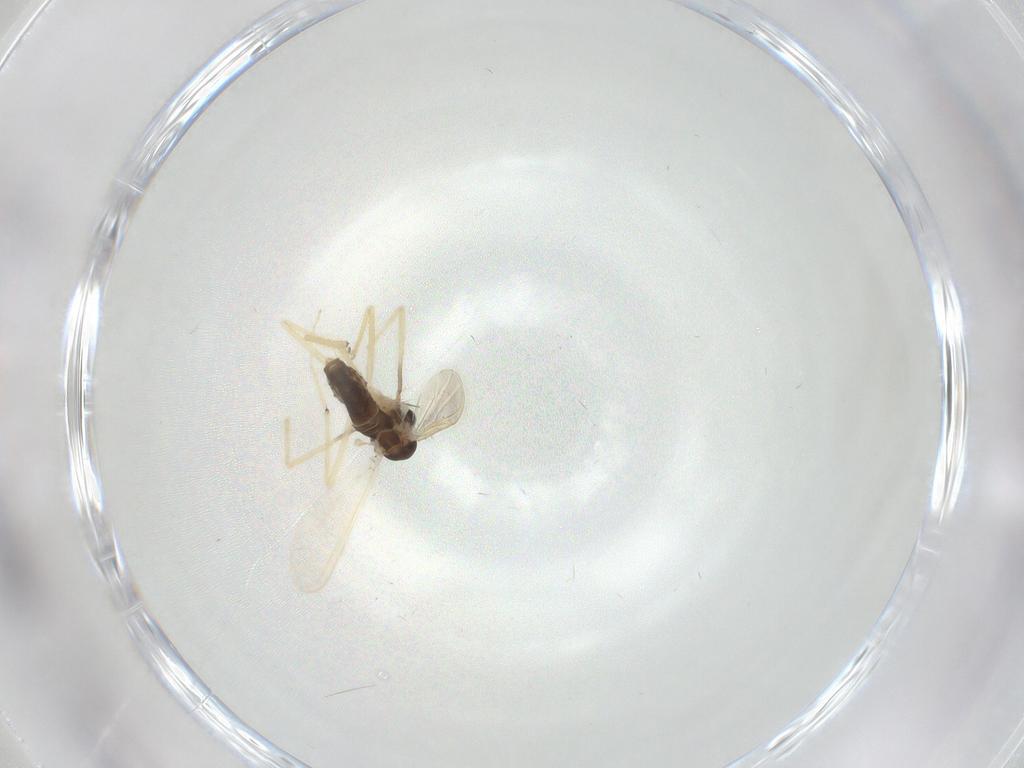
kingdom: Animalia
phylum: Arthropoda
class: Insecta
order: Diptera
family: Chironomidae
